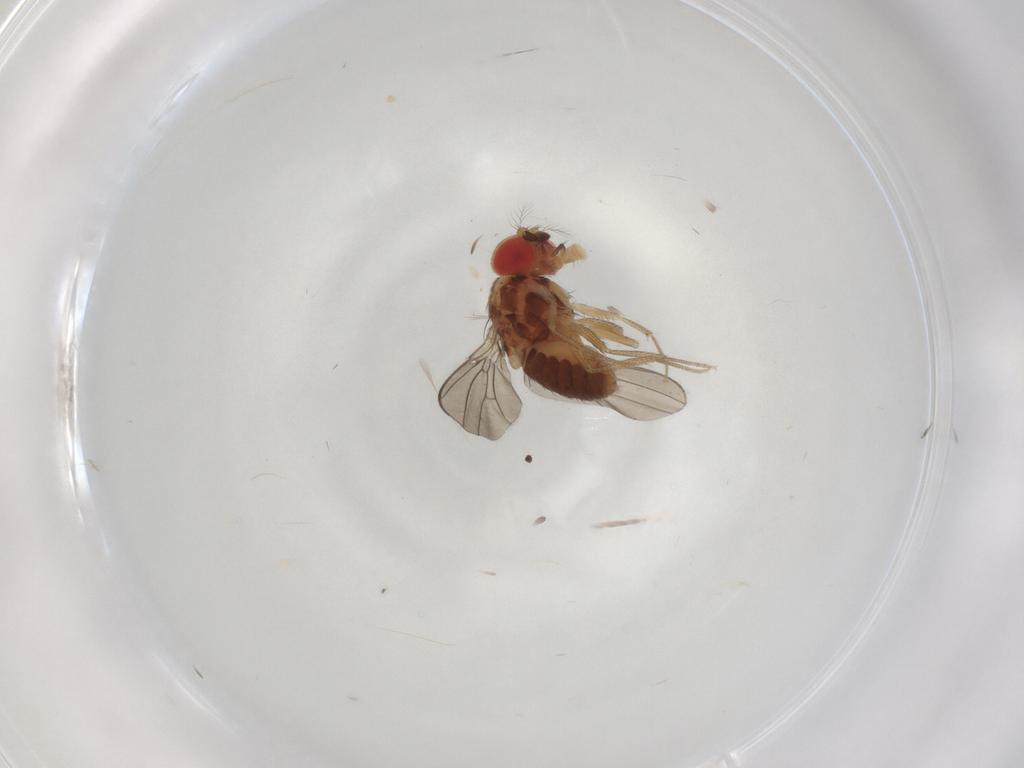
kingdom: Animalia
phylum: Arthropoda
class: Insecta
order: Diptera
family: Drosophilidae
